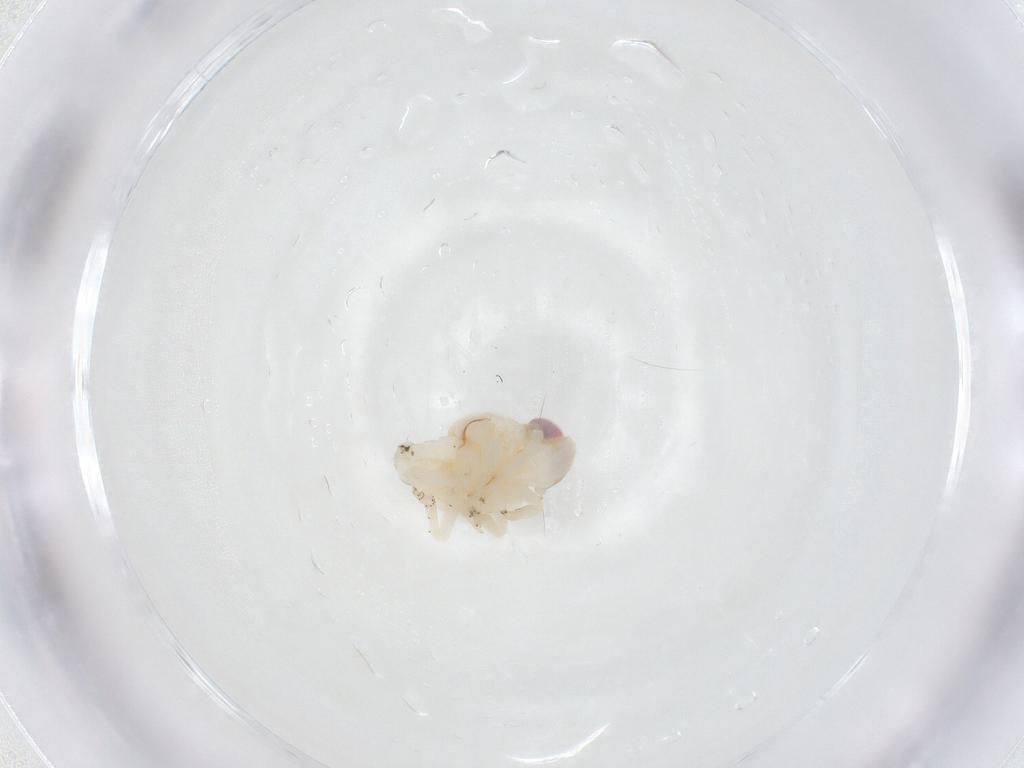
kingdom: Animalia
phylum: Arthropoda
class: Insecta
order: Hemiptera
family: Nogodinidae
